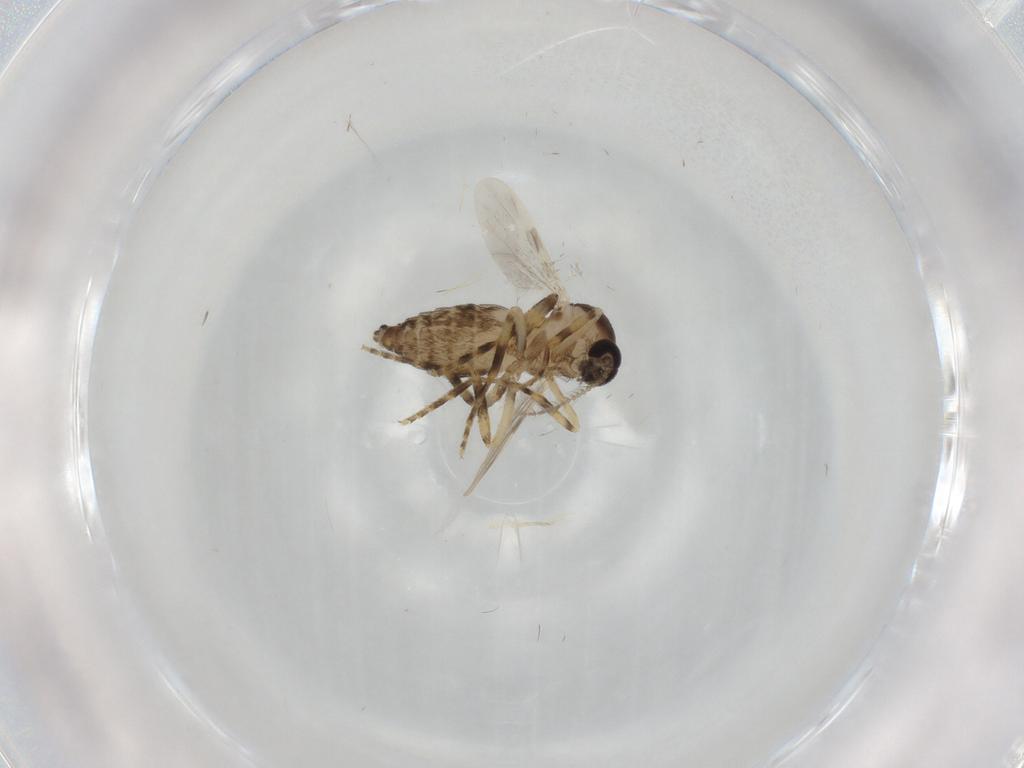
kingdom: Animalia
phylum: Arthropoda
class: Insecta
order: Diptera
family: Ceratopogonidae
